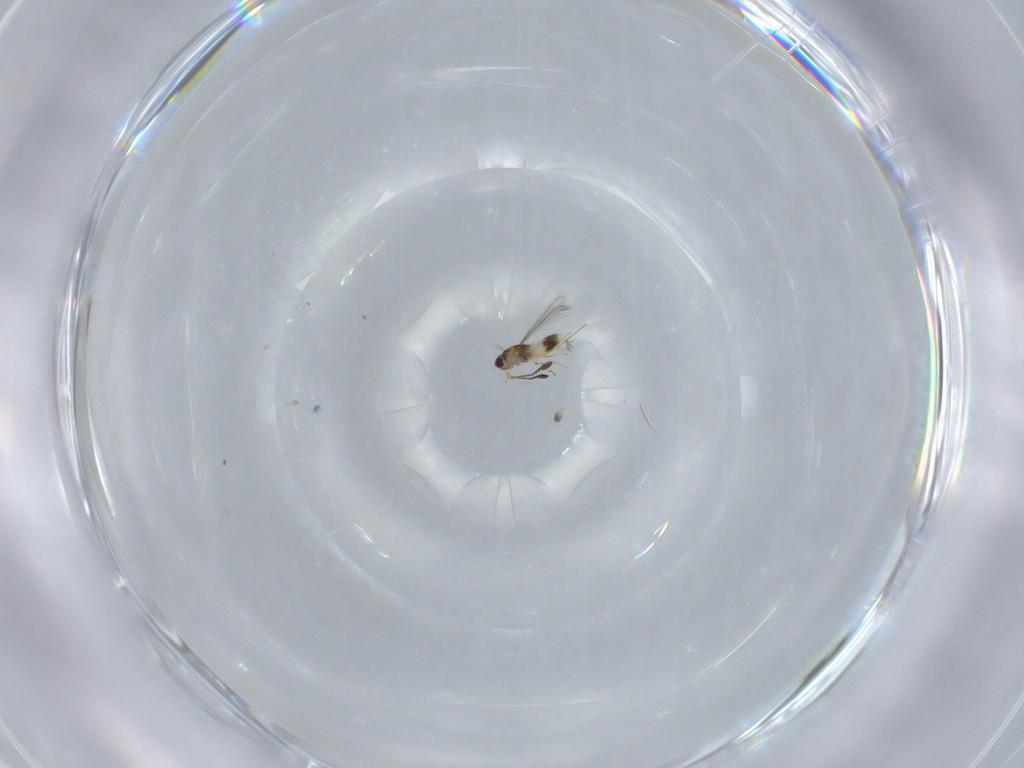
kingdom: Animalia
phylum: Arthropoda
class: Insecta
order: Hymenoptera
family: Mymaridae
